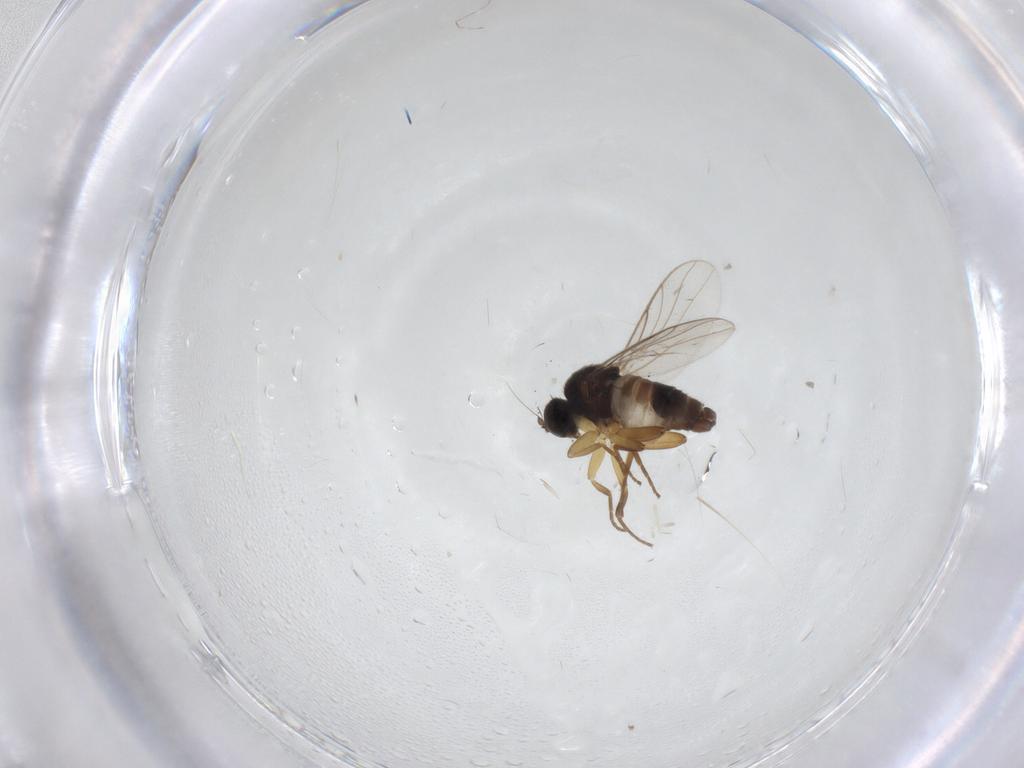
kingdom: Animalia
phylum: Arthropoda
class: Insecta
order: Diptera
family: Hybotidae
